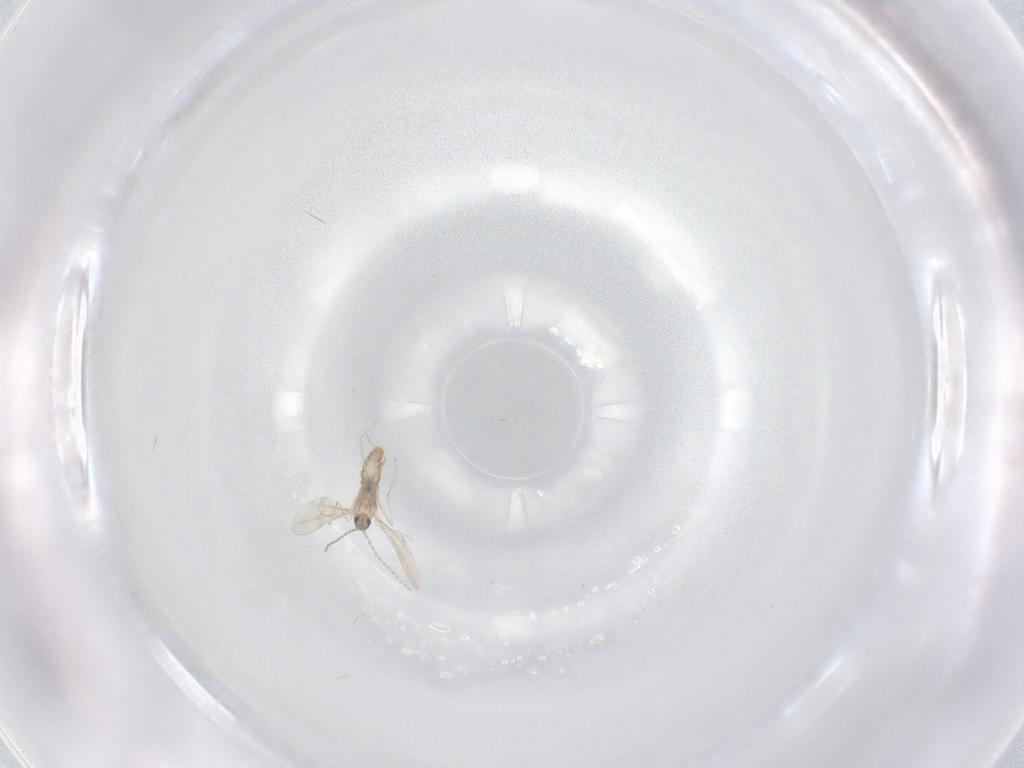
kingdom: Animalia
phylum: Arthropoda
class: Insecta
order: Diptera
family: Cecidomyiidae
